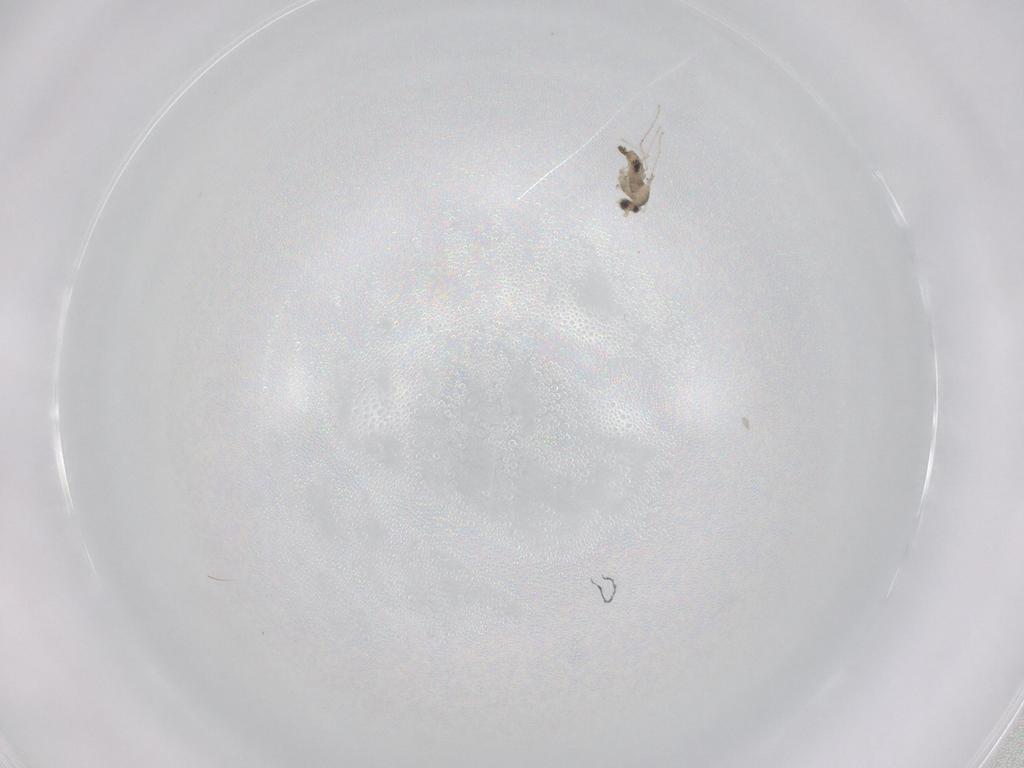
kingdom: Animalia
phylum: Arthropoda
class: Insecta
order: Diptera
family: Cecidomyiidae
